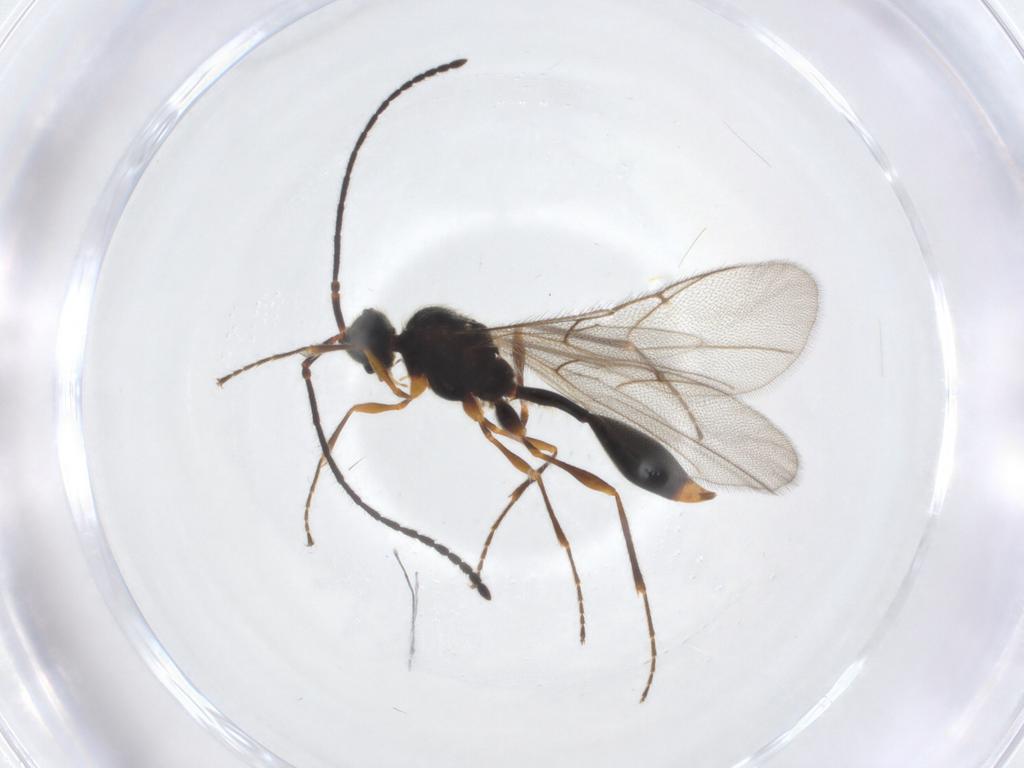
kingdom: Animalia
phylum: Arthropoda
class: Insecta
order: Hymenoptera
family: Diapriidae
